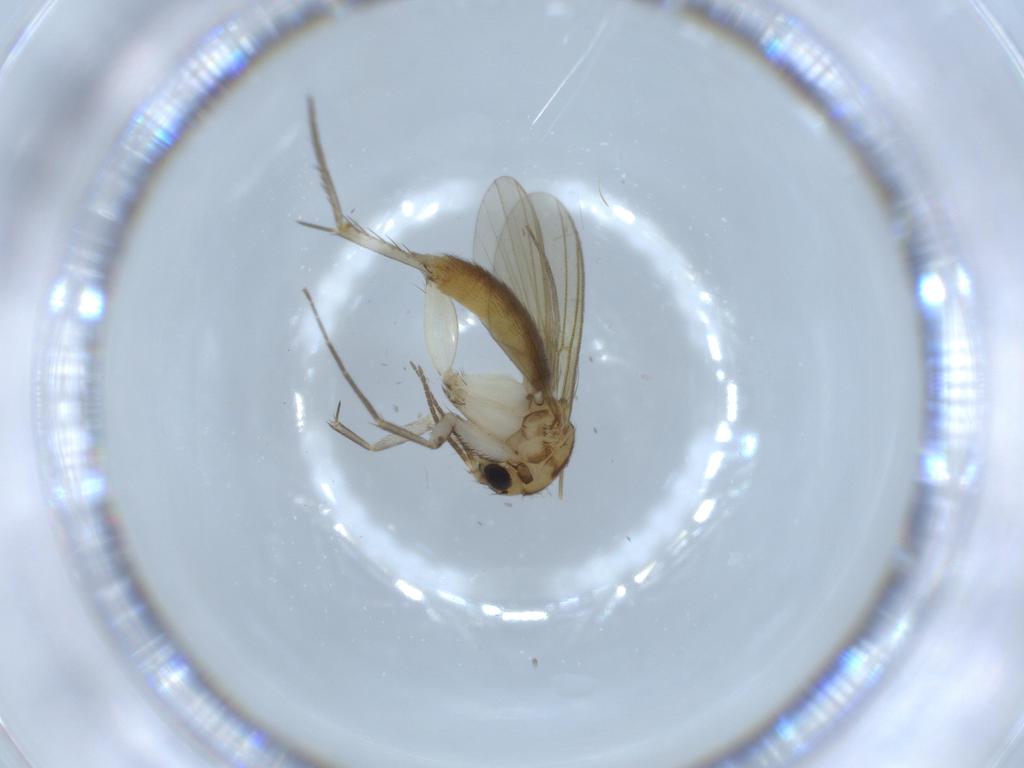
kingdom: Animalia
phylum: Arthropoda
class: Insecta
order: Diptera
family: Mycetophilidae
